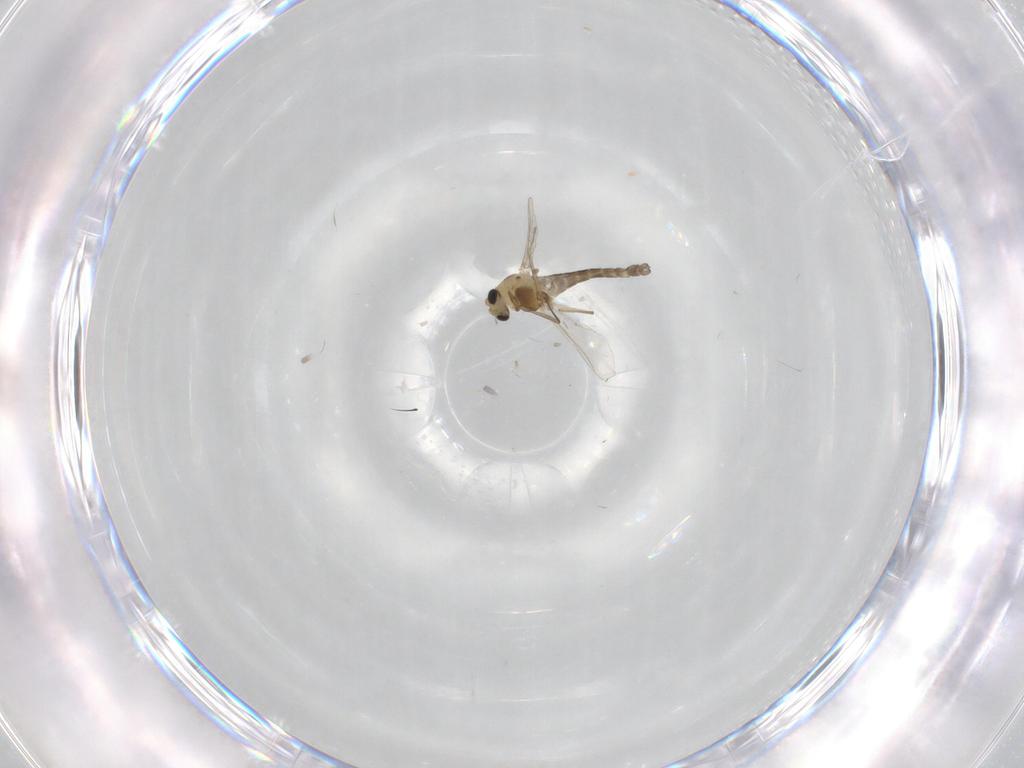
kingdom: Animalia
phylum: Arthropoda
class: Insecta
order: Diptera
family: Chironomidae
